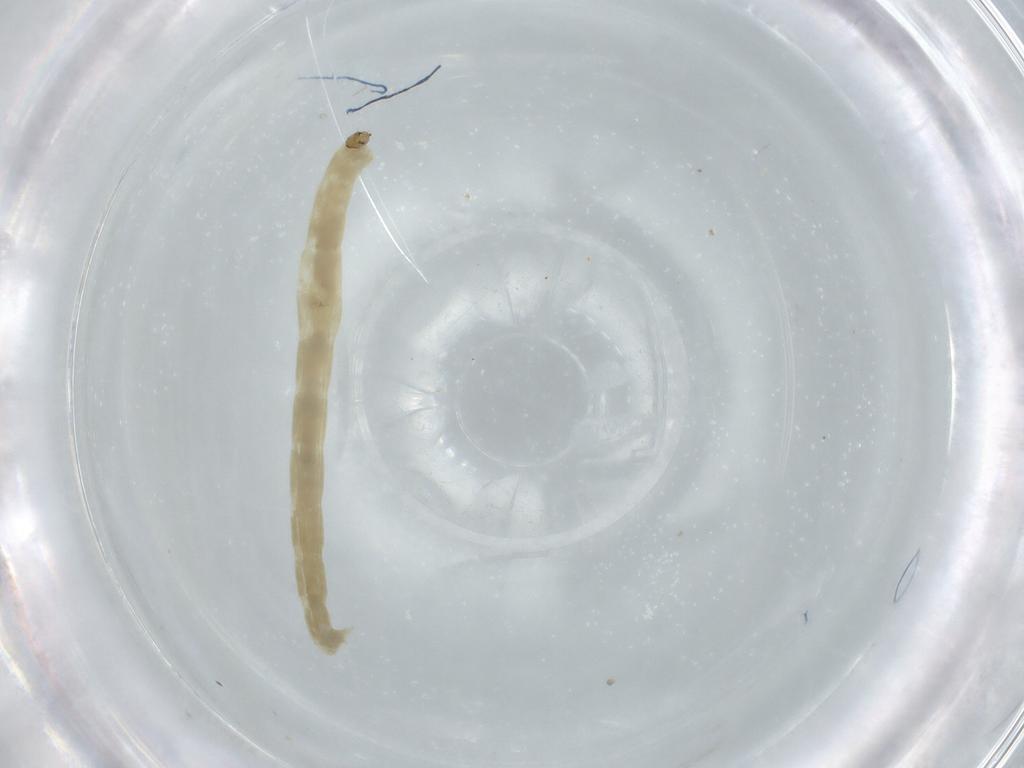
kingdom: Animalia
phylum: Arthropoda
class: Insecta
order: Diptera
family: Chironomidae
